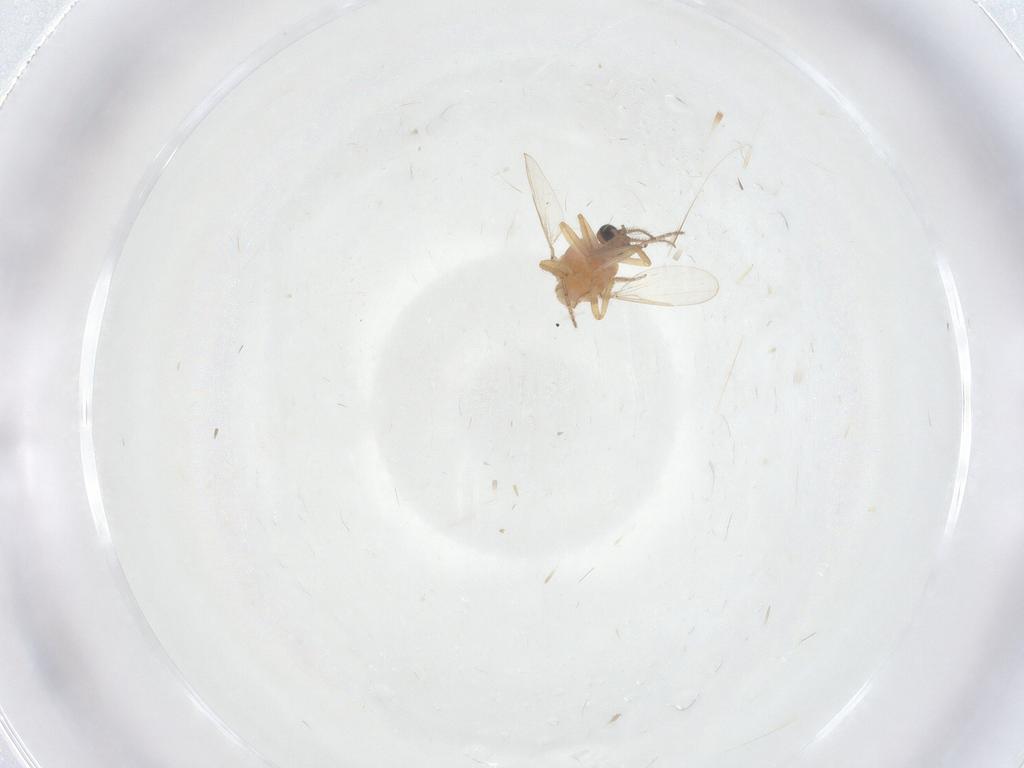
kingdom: Animalia
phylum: Arthropoda
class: Insecta
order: Diptera
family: Ceratopogonidae
